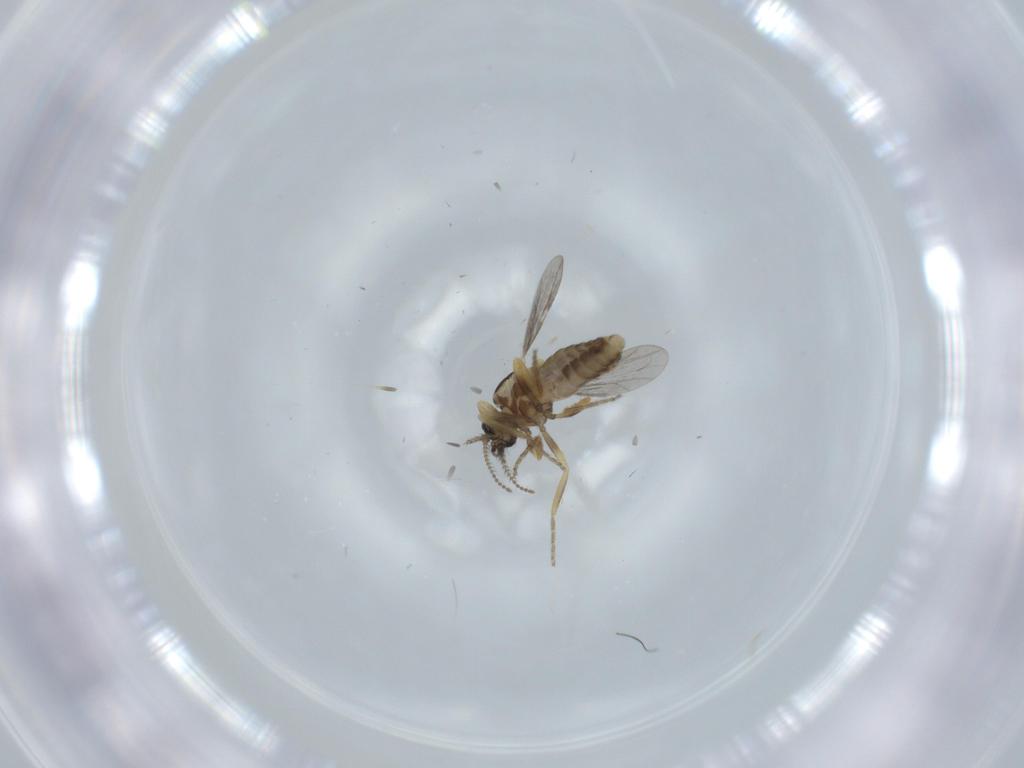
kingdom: Animalia
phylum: Arthropoda
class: Insecta
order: Diptera
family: Ceratopogonidae
